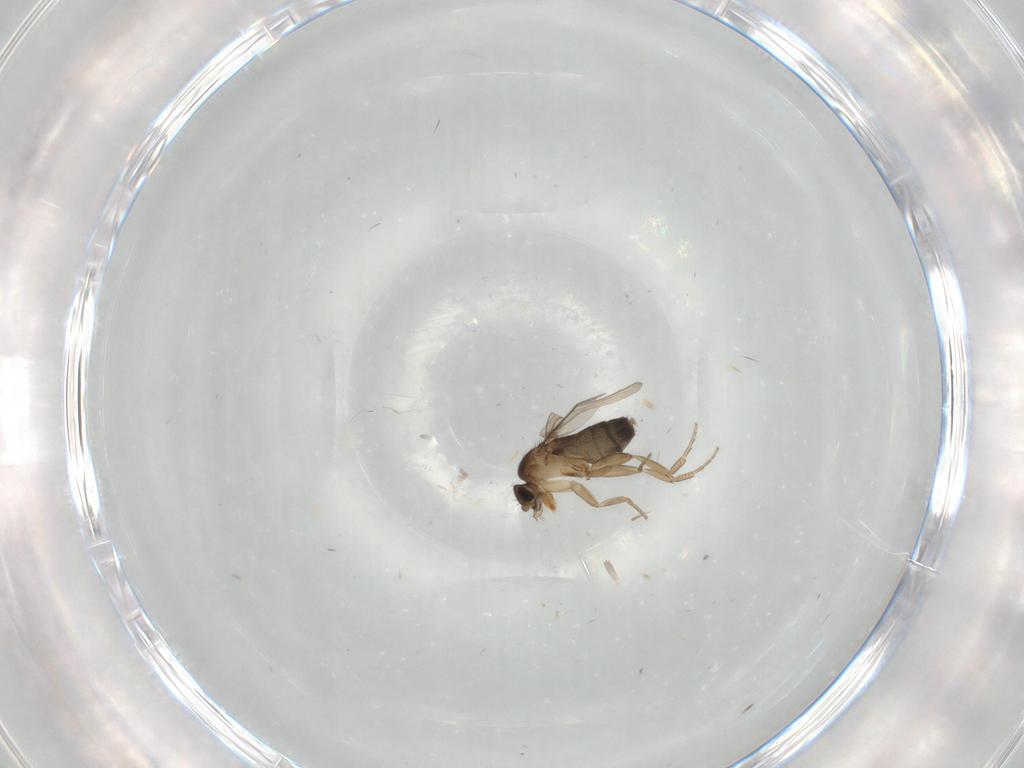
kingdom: Animalia
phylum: Arthropoda
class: Insecta
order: Diptera
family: Phoridae
